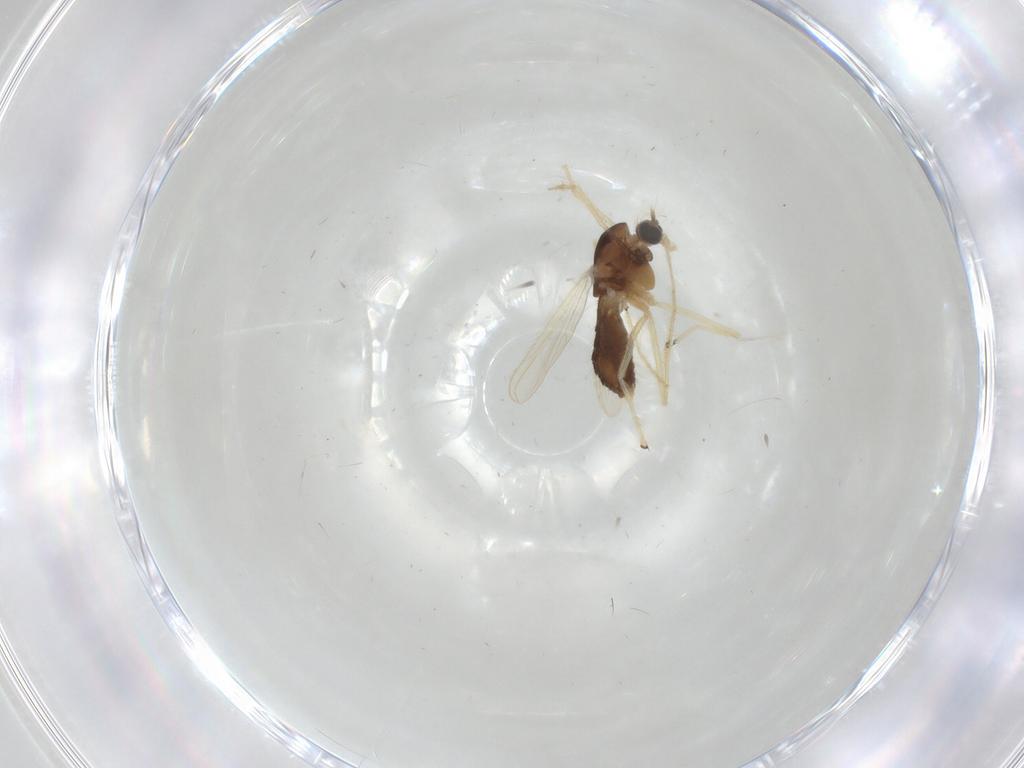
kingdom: Animalia
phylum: Arthropoda
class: Insecta
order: Diptera
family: Chironomidae
